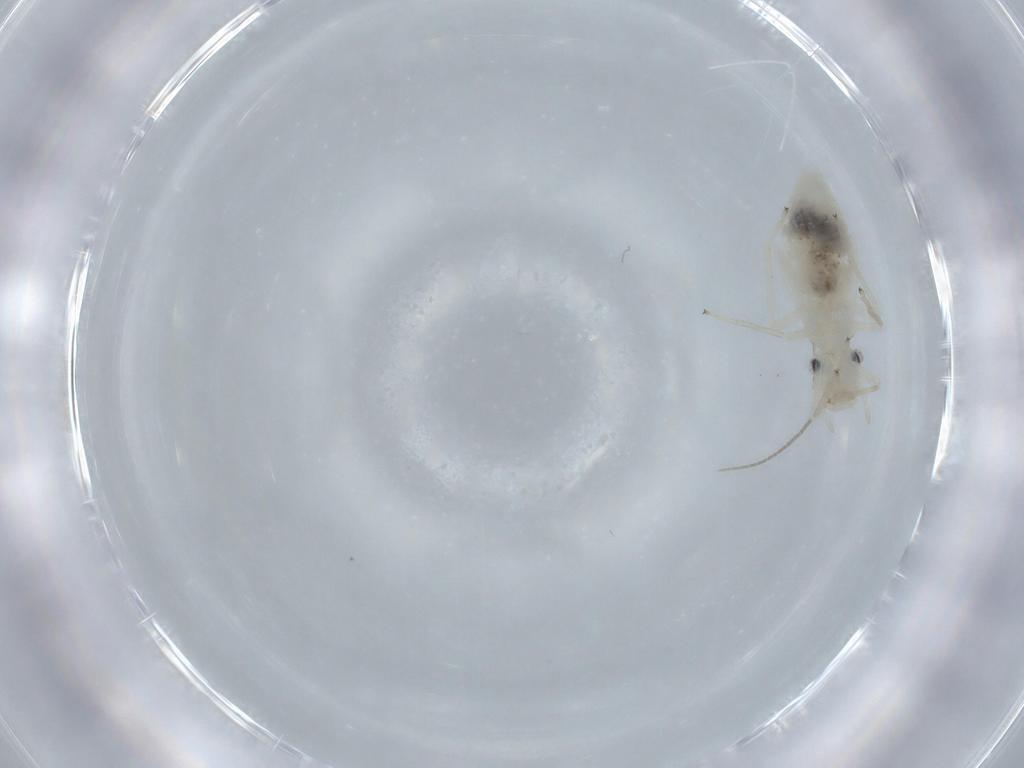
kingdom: Animalia
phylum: Arthropoda
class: Insecta
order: Psocodea
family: Caeciliusidae
